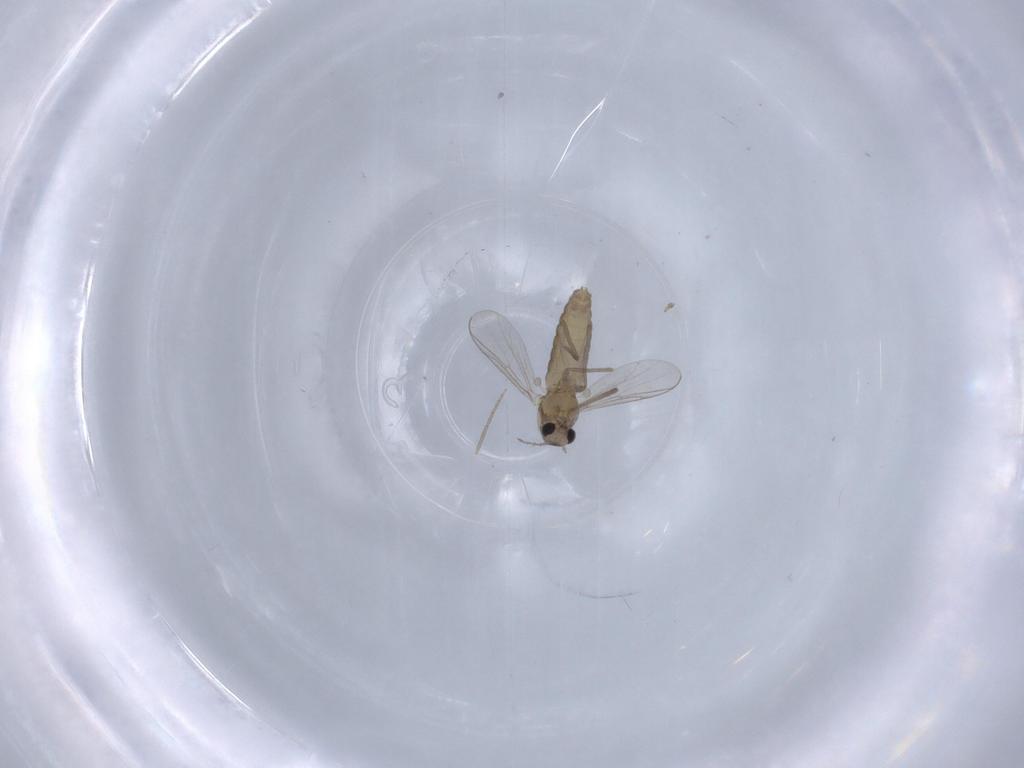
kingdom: Animalia
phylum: Arthropoda
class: Insecta
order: Diptera
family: Chironomidae
